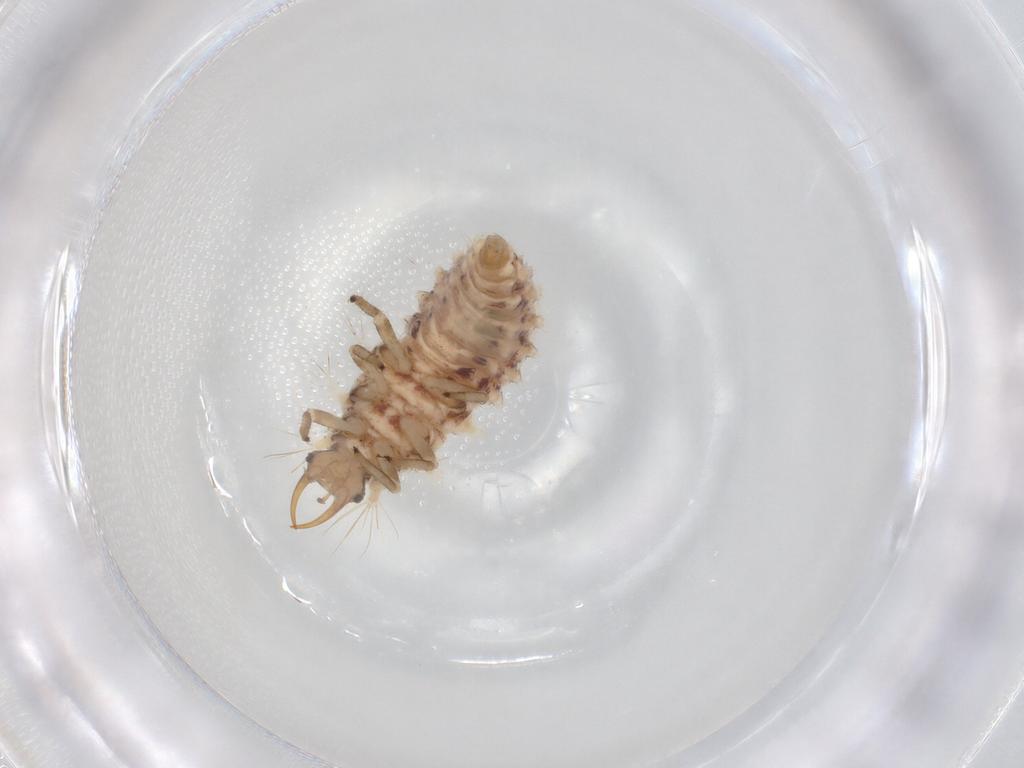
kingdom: Animalia
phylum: Arthropoda
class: Insecta
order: Neuroptera
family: Chrysopidae
